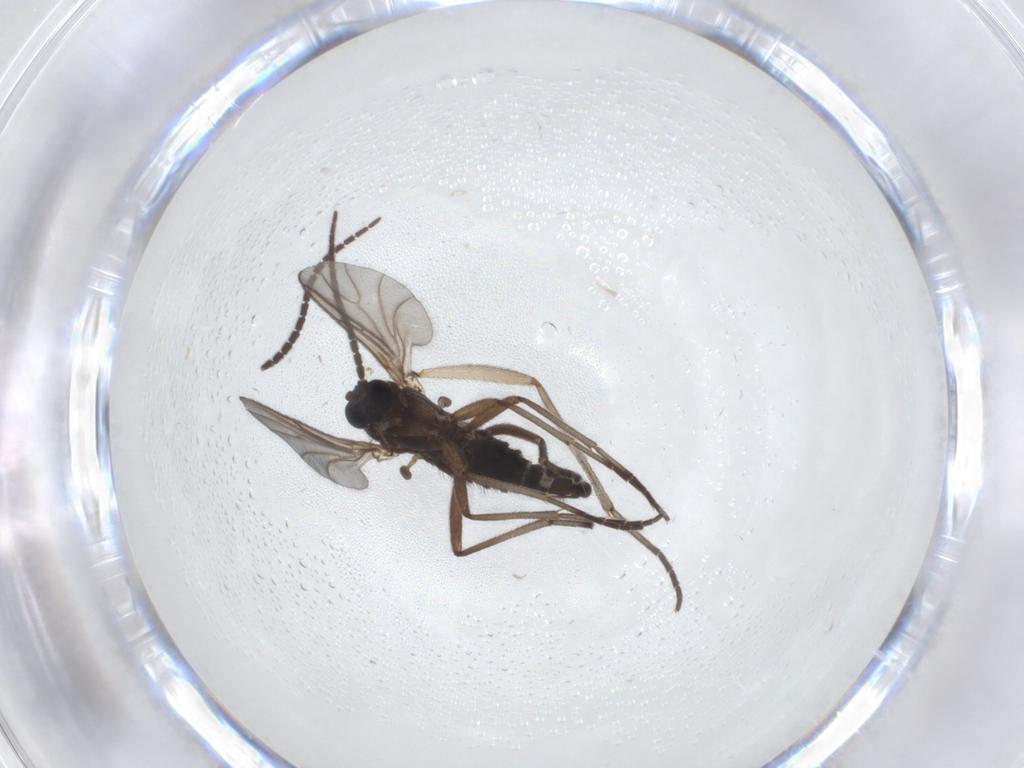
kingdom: Animalia
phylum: Arthropoda
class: Insecta
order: Diptera
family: Sciaridae
